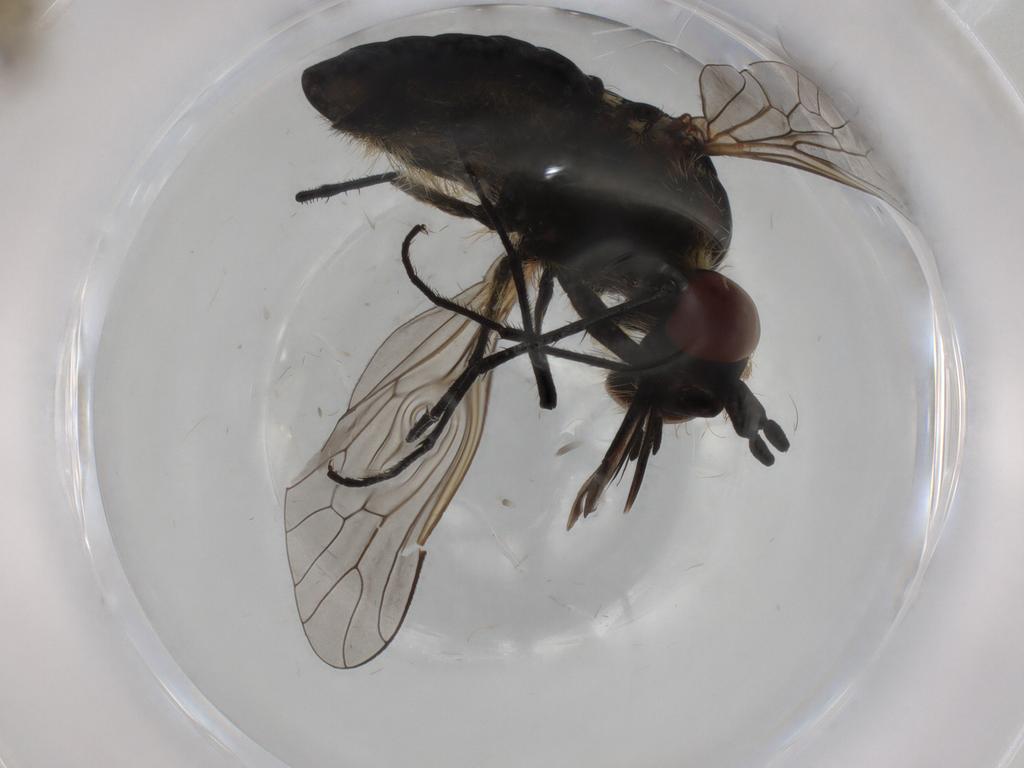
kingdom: Animalia
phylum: Arthropoda
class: Insecta
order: Diptera
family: Bombyliidae
